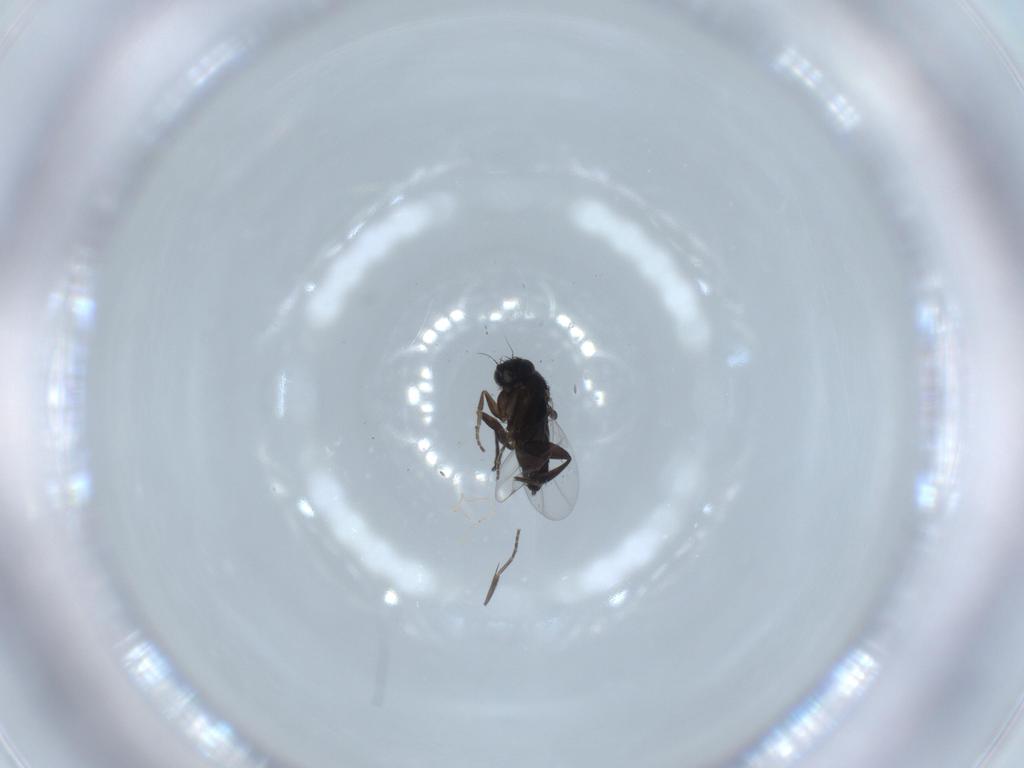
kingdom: Animalia
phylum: Arthropoda
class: Insecta
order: Diptera
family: Phoridae
